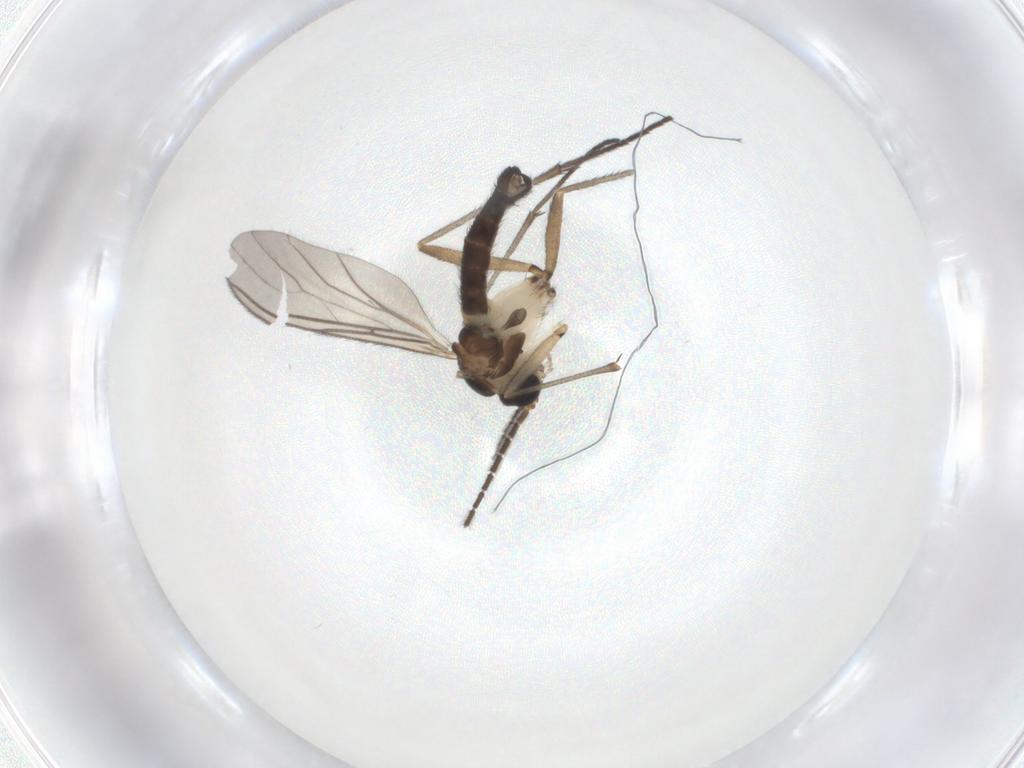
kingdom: Animalia
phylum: Arthropoda
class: Insecta
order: Diptera
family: Sciaridae
